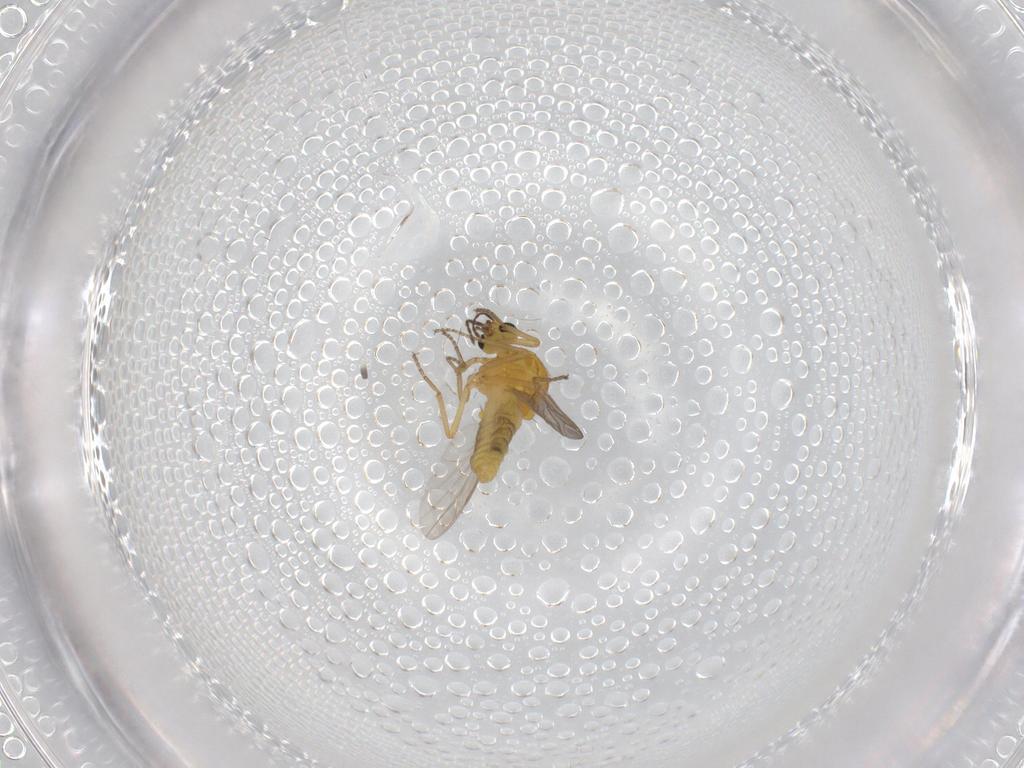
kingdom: Animalia
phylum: Arthropoda
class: Insecta
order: Diptera
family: Ceratopogonidae
